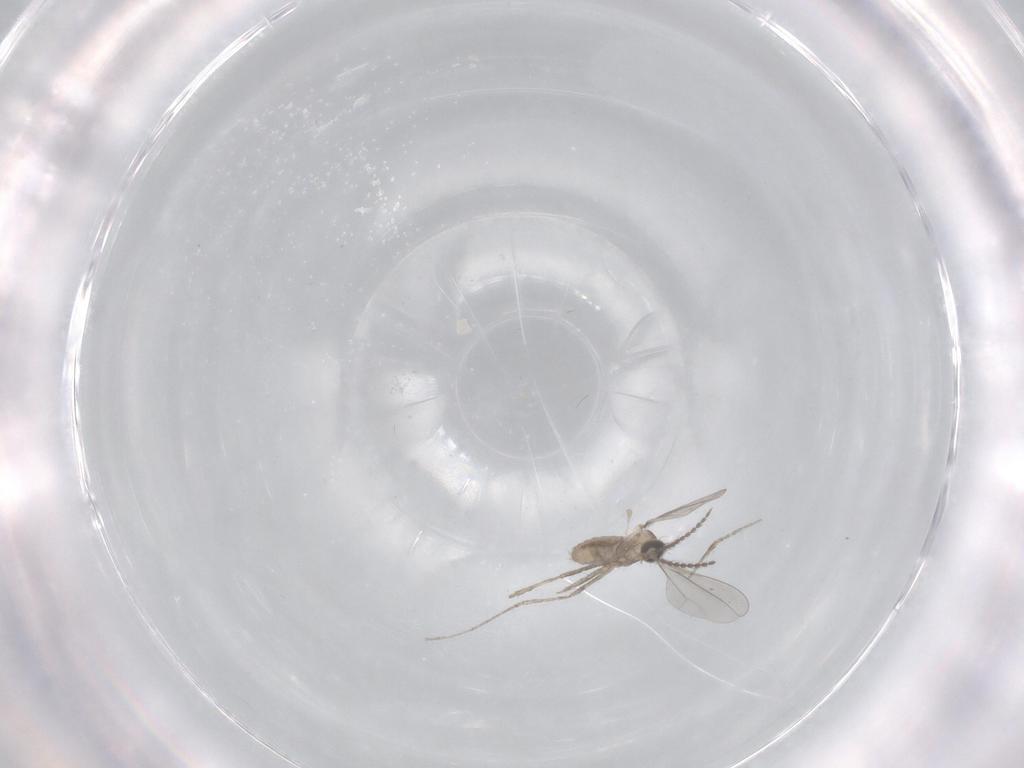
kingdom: Animalia
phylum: Arthropoda
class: Insecta
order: Diptera
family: Cecidomyiidae
